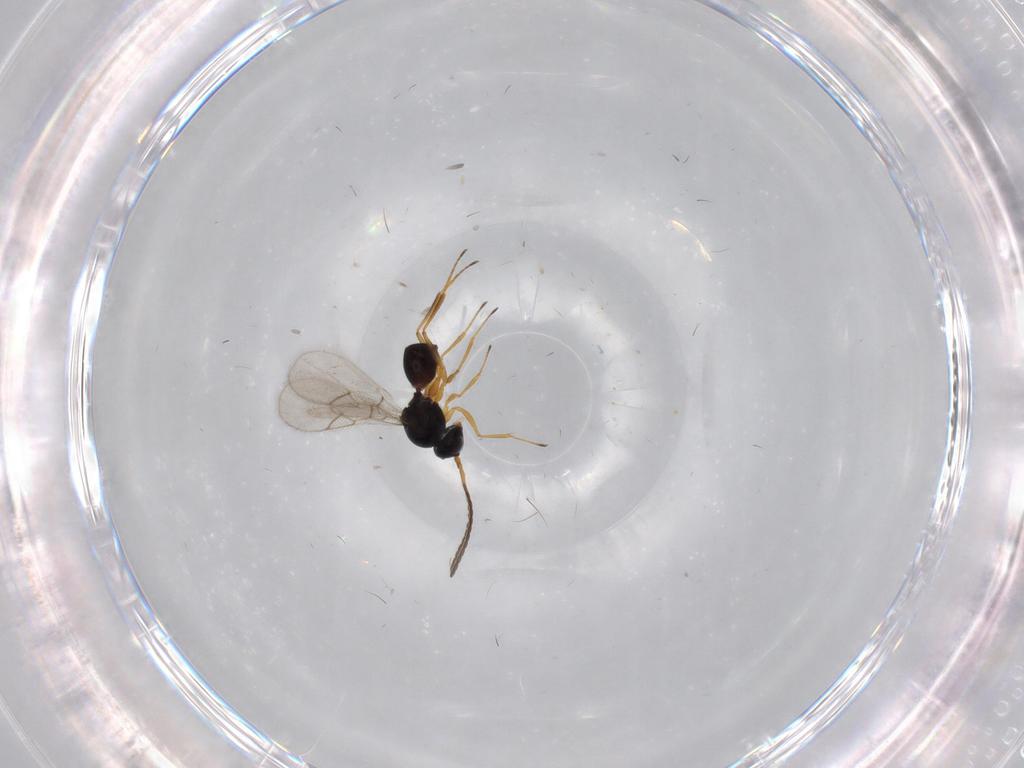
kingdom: Animalia
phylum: Arthropoda
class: Insecta
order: Hymenoptera
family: Figitidae
